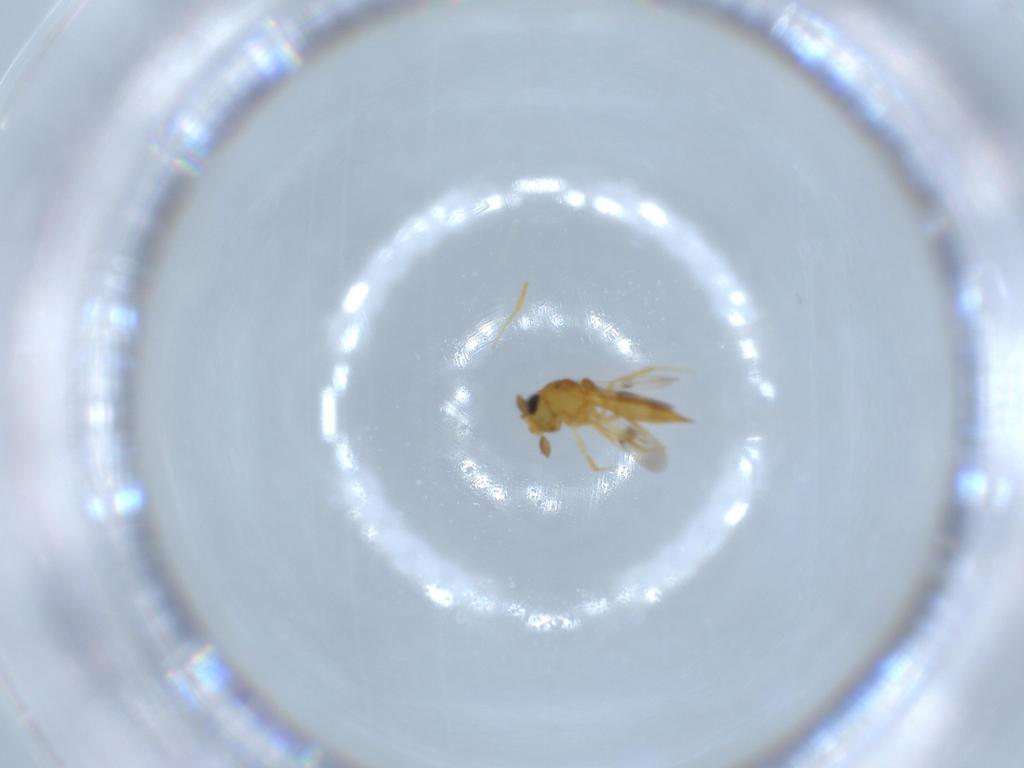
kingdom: Animalia
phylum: Arthropoda
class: Insecta
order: Hymenoptera
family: Scelionidae
